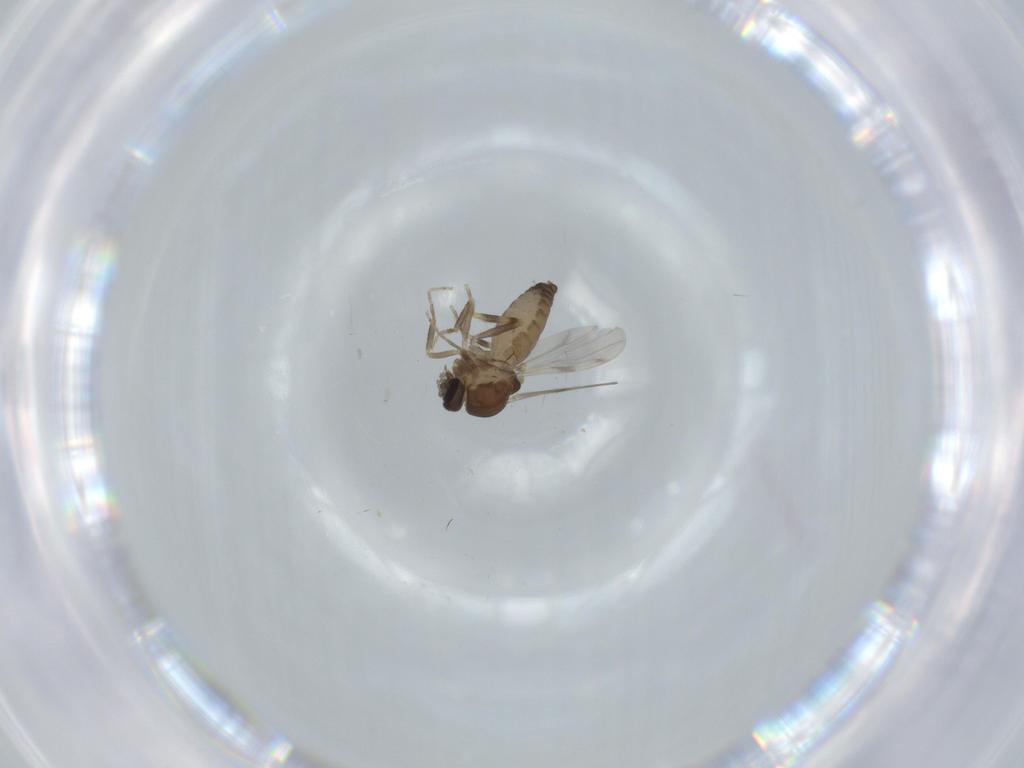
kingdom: Animalia
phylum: Arthropoda
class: Insecta
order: Diptera
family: Ceratopogonidae
